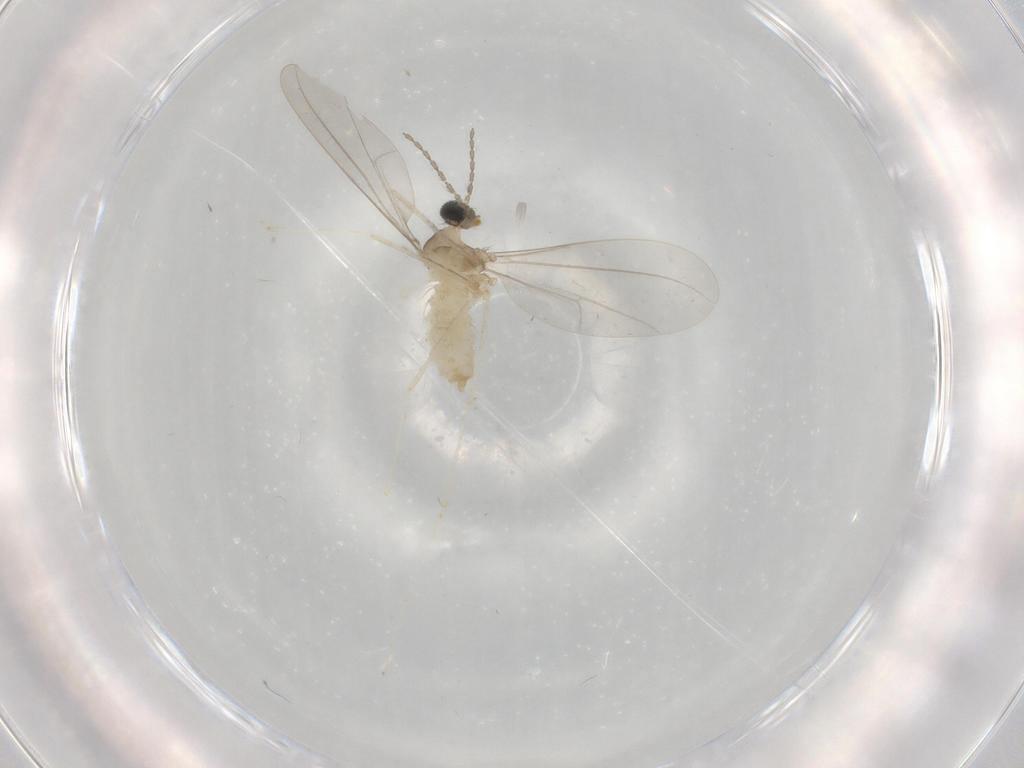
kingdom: Animalia
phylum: Arthropoda
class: Insecta
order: Diptera
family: Cecidomyiidae
